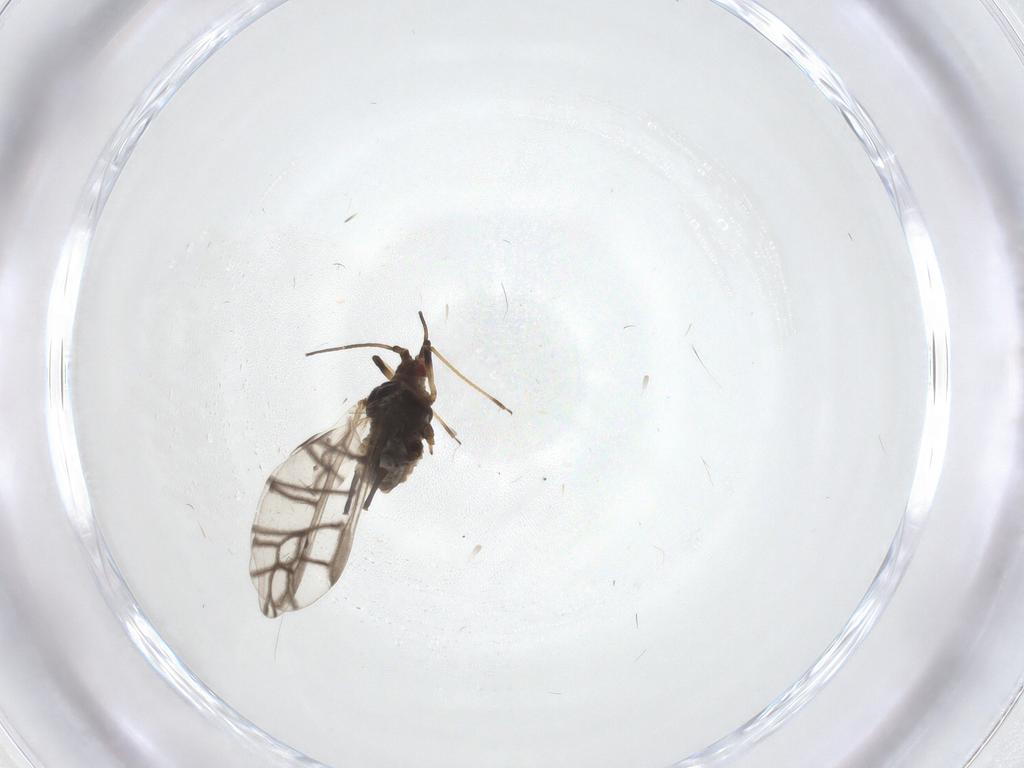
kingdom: Animalia
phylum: Arthropoda
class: Insecta
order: Hemiptera
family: Aphididae
